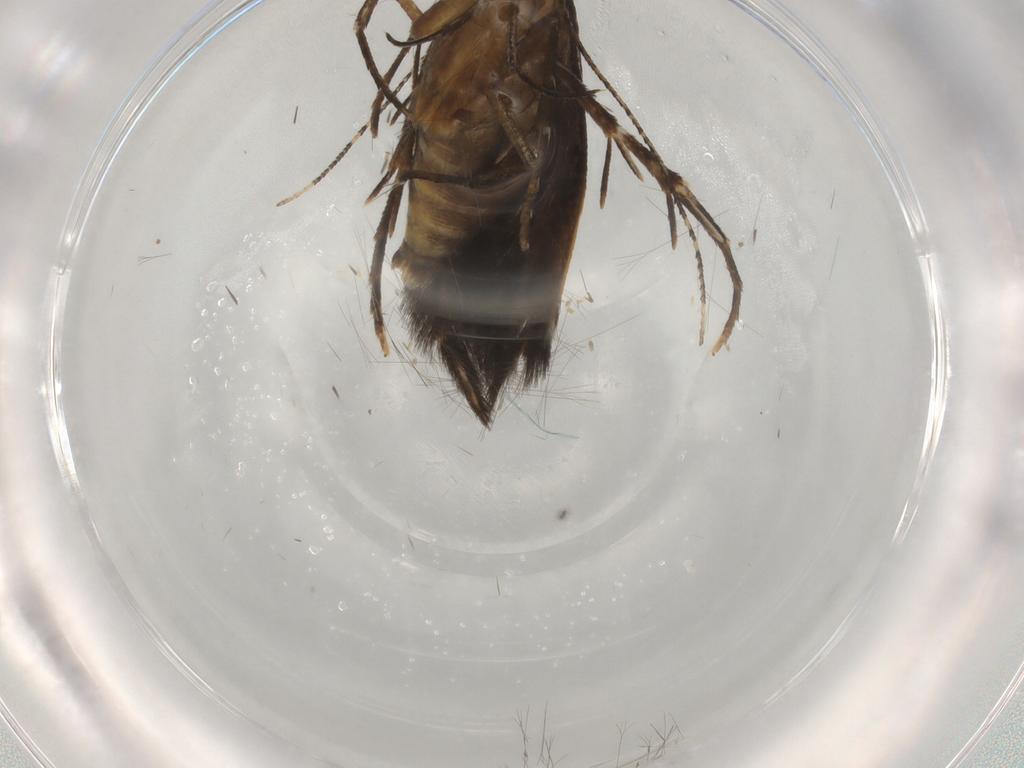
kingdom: Animalia
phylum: Arthropoda
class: Insecta
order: Lepidoptera
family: Cosmopterigidae
